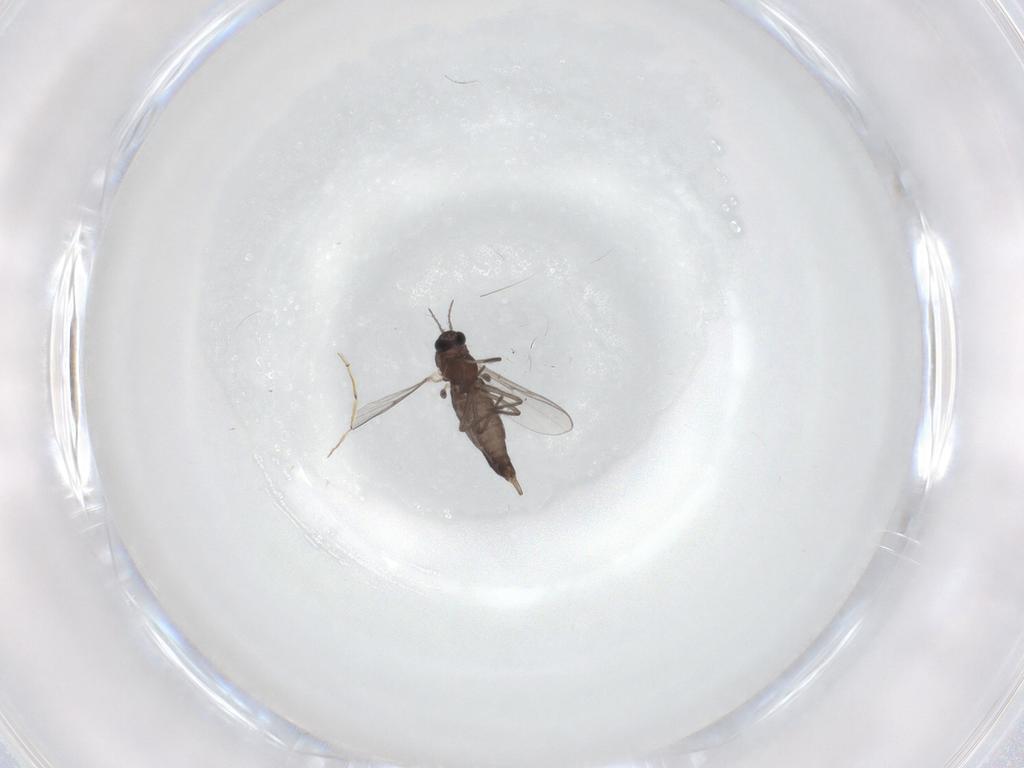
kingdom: Animalia
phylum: Arthropoda
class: Insecta
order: Diptera
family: Chironomidae
